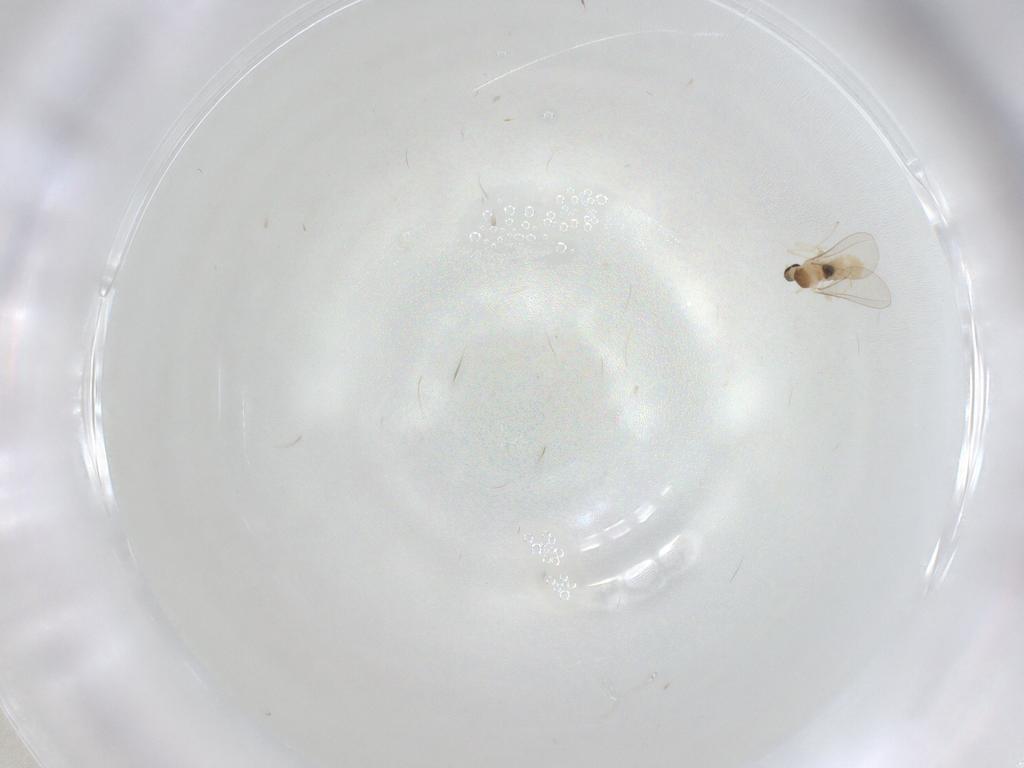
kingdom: Animalia
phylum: Arthropoda
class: Insecta
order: Diptera
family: Cecidomyiidae
